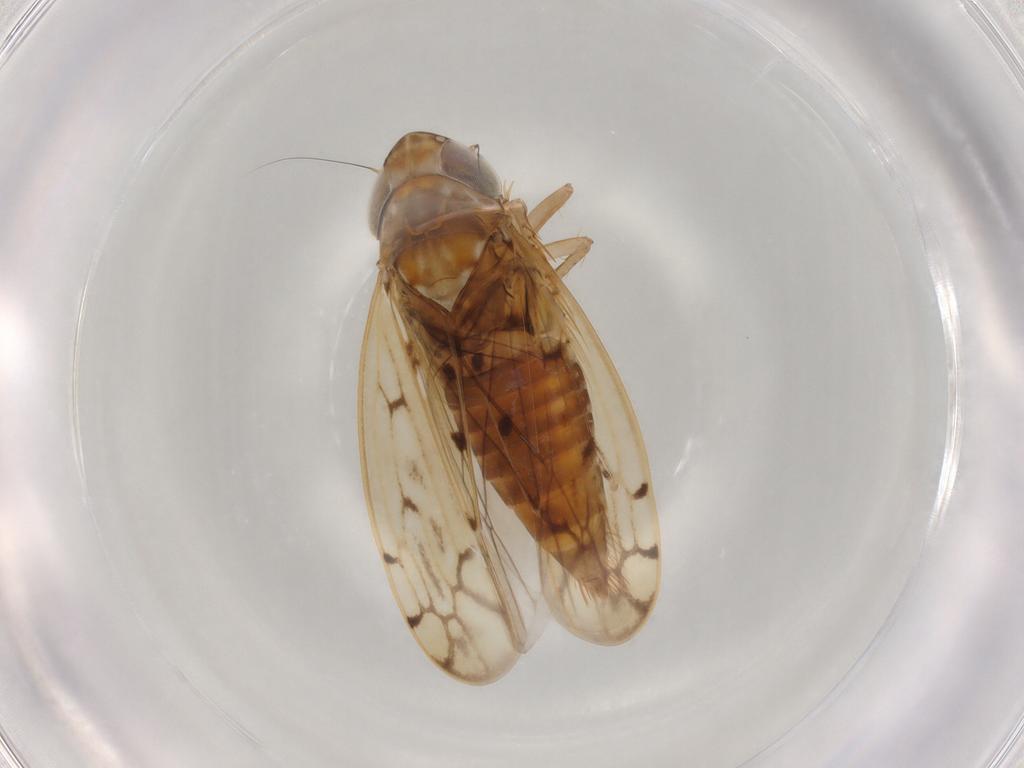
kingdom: Animalia
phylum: Arthropoda
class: Insecta
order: Hemiptera
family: Cicadellidae
